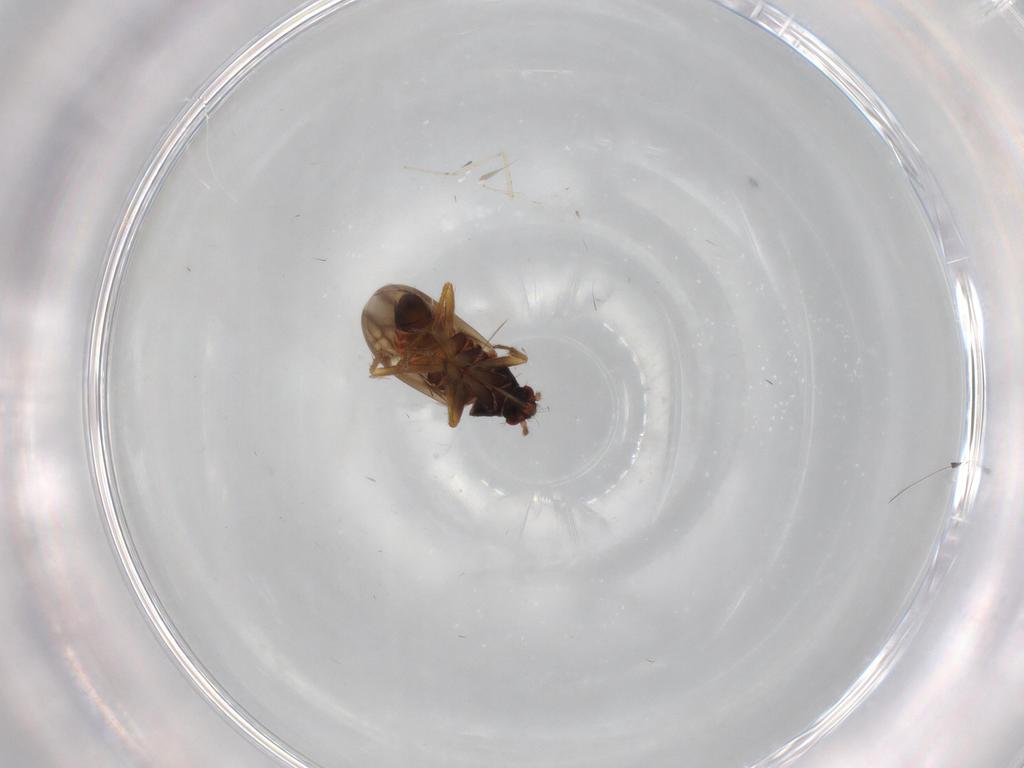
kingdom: Animalia
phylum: Arthropoda
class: Insecta
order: Hemiptera
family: Ceratocombidae
